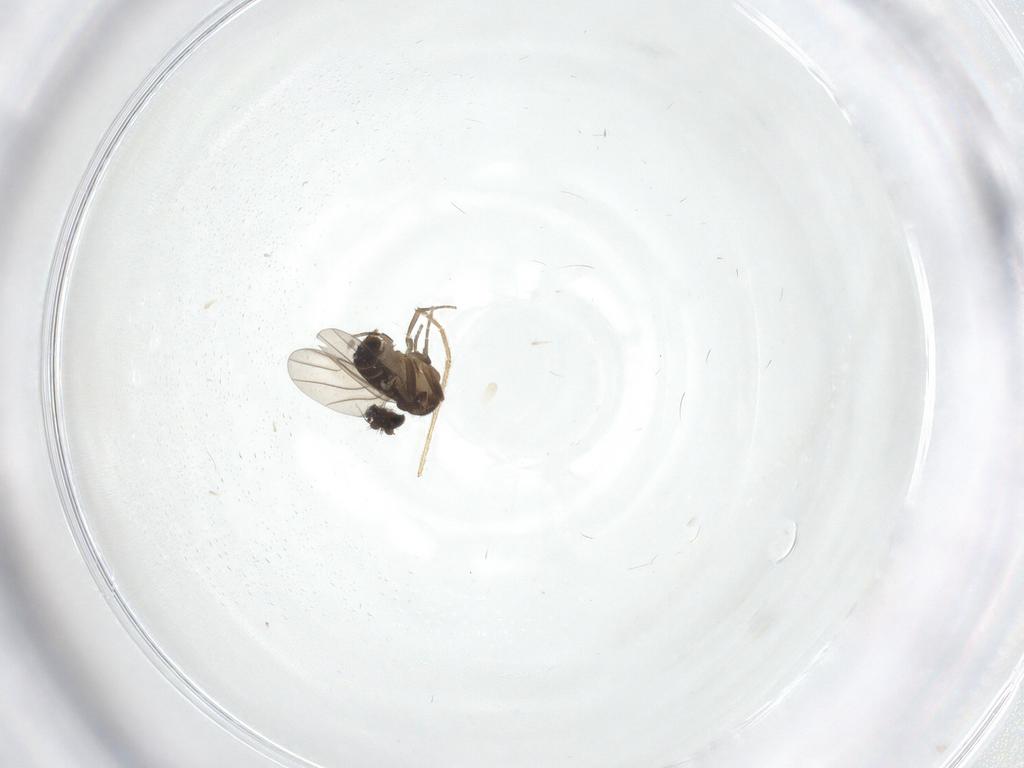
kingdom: Animalia
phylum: Arthropoda
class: Insecta
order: Diptera
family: Phoridae
